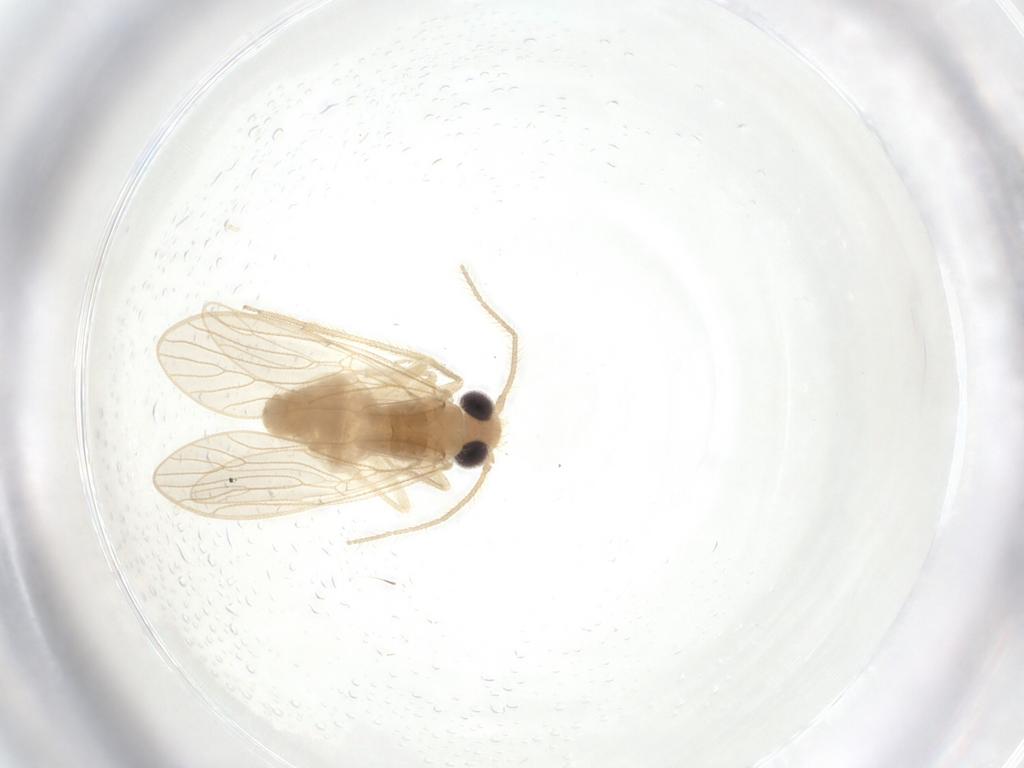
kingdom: Animalia
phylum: Arthropoda
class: Insecta
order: Psocodea
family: Cladiopsocidae
